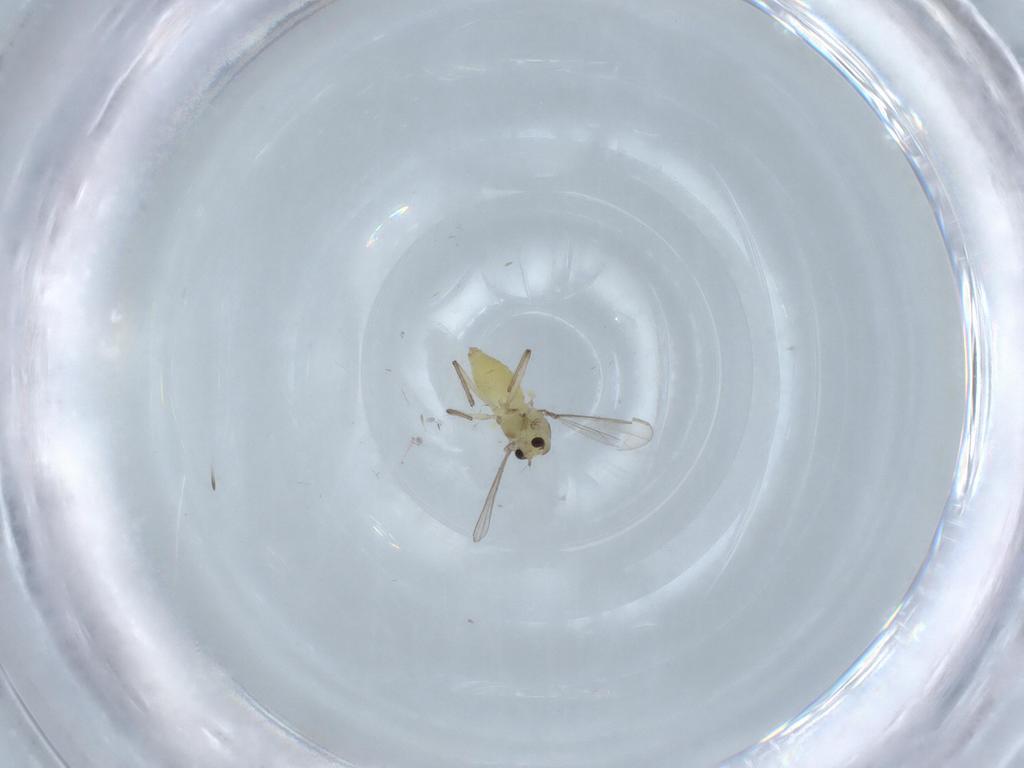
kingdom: Animalia
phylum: Arthropoda
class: Insecta
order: Diptera
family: Chironomidae
